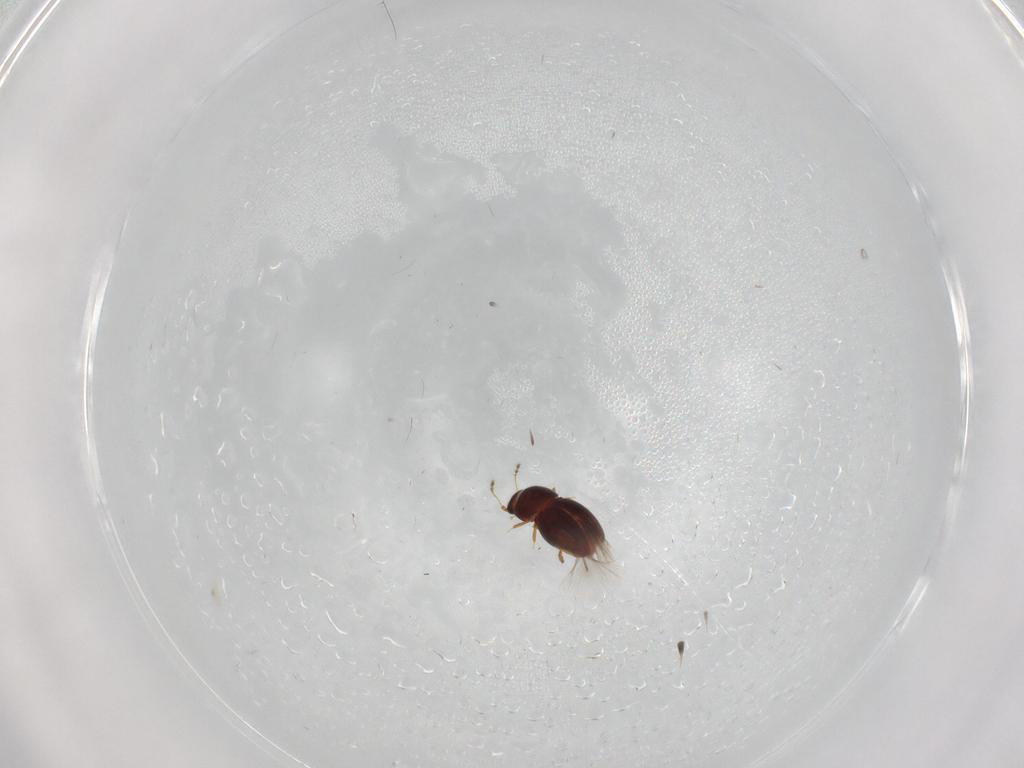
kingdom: Animalia
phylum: Arthropoda
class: Insecta
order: Coleoptera
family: Ptiliidae
